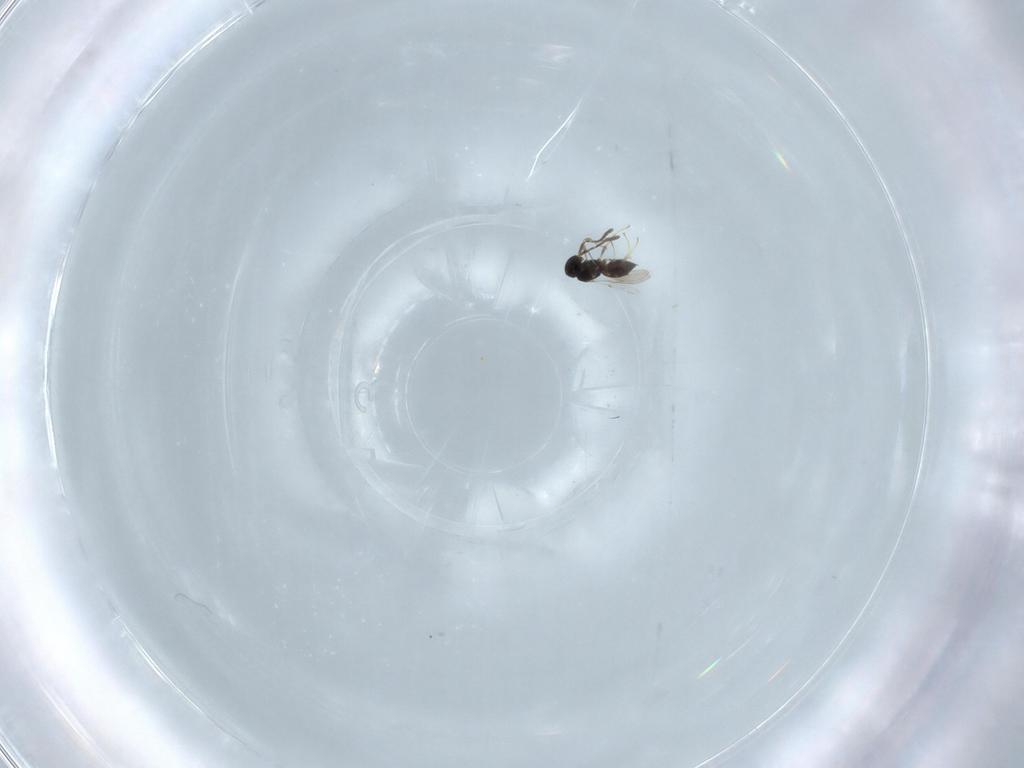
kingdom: Animalia
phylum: Arthropoda
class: Insecta
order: Hymenoptera
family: Scelionidae
